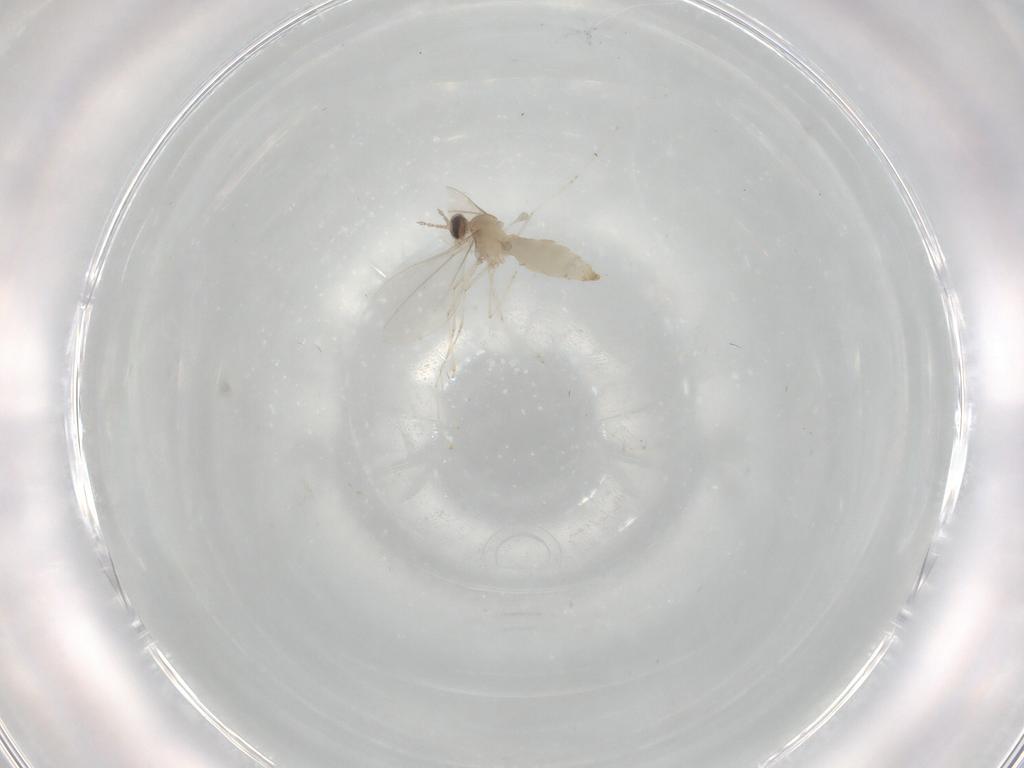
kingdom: Animalia
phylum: Arthropoda
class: Insecta
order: Diptera
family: Cecidomyiidae
